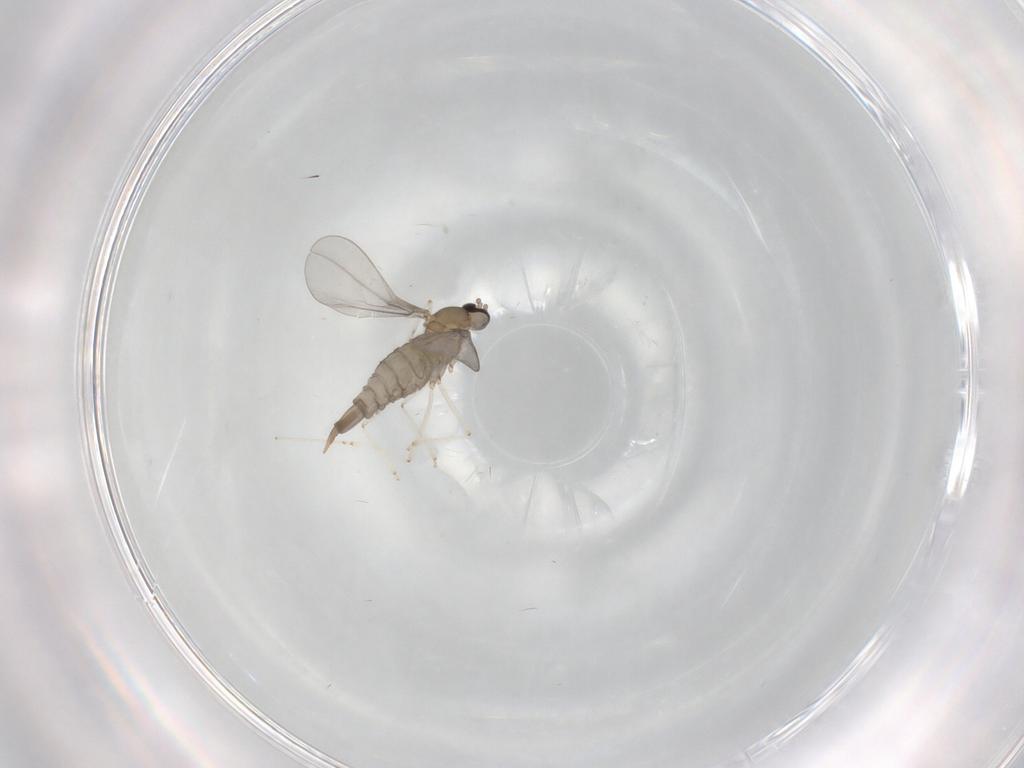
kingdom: Animalia
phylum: Arthropoda
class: Insecta
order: Diptera
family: Cecidomyiidae
